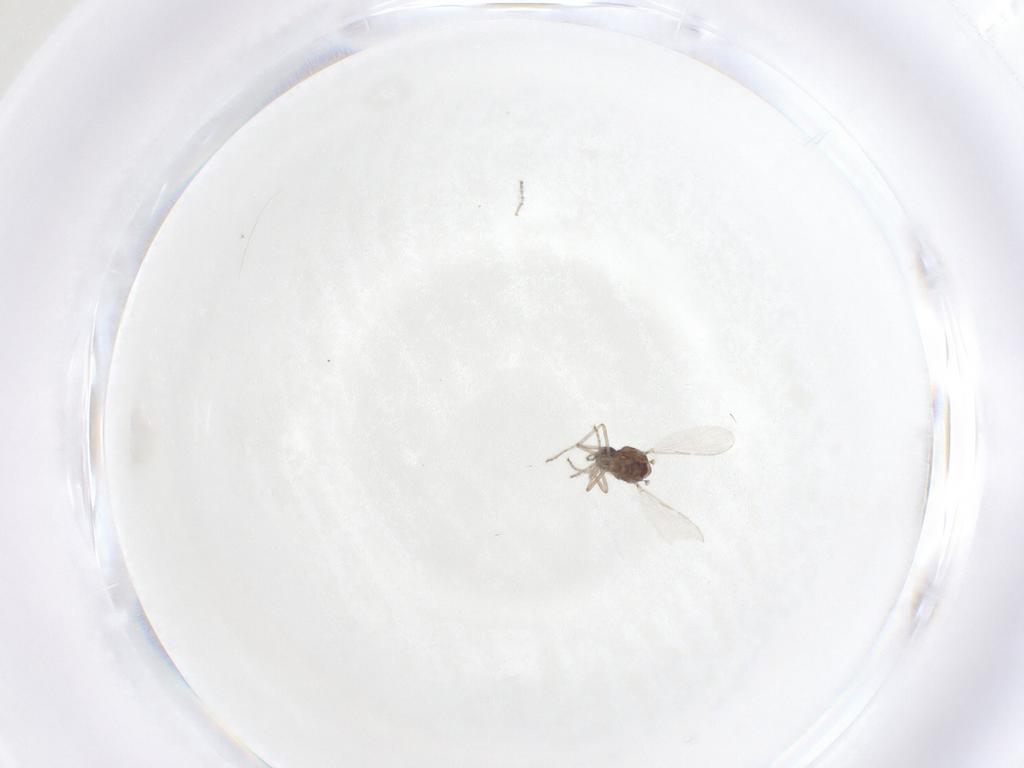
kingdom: Animalia
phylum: Arthropoda
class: Insecta
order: Diptera
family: Ceratopogonidae
